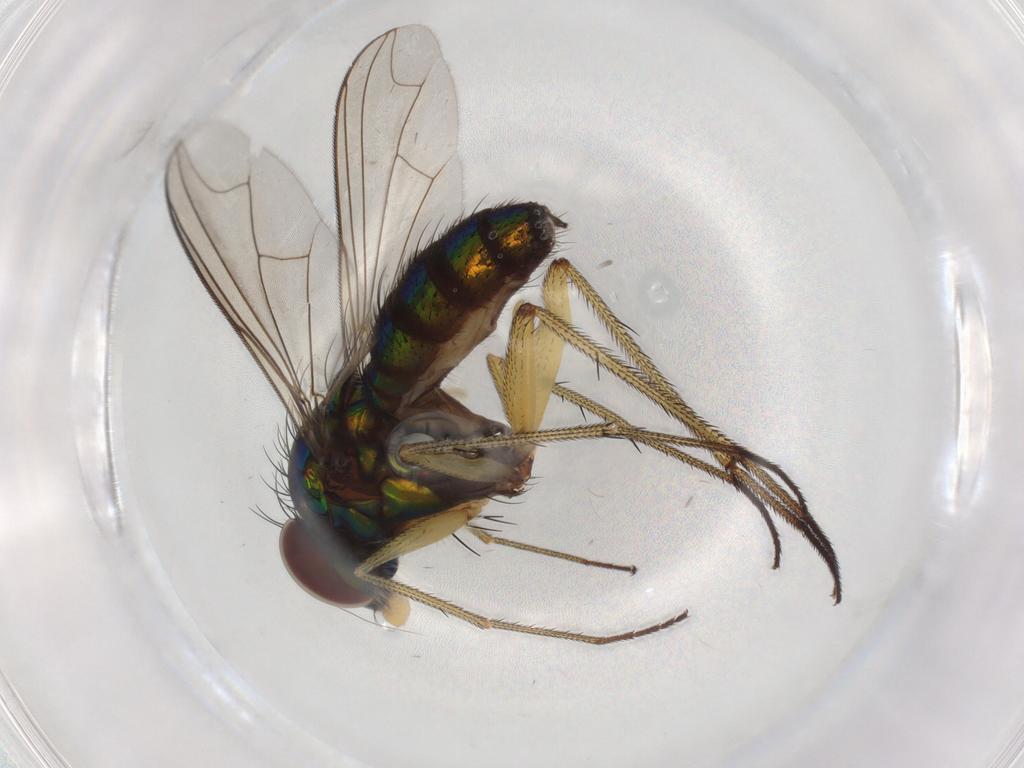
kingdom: Animalia
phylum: Arthropoda
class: Insecta
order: Diptera
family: Dolichopodidae
